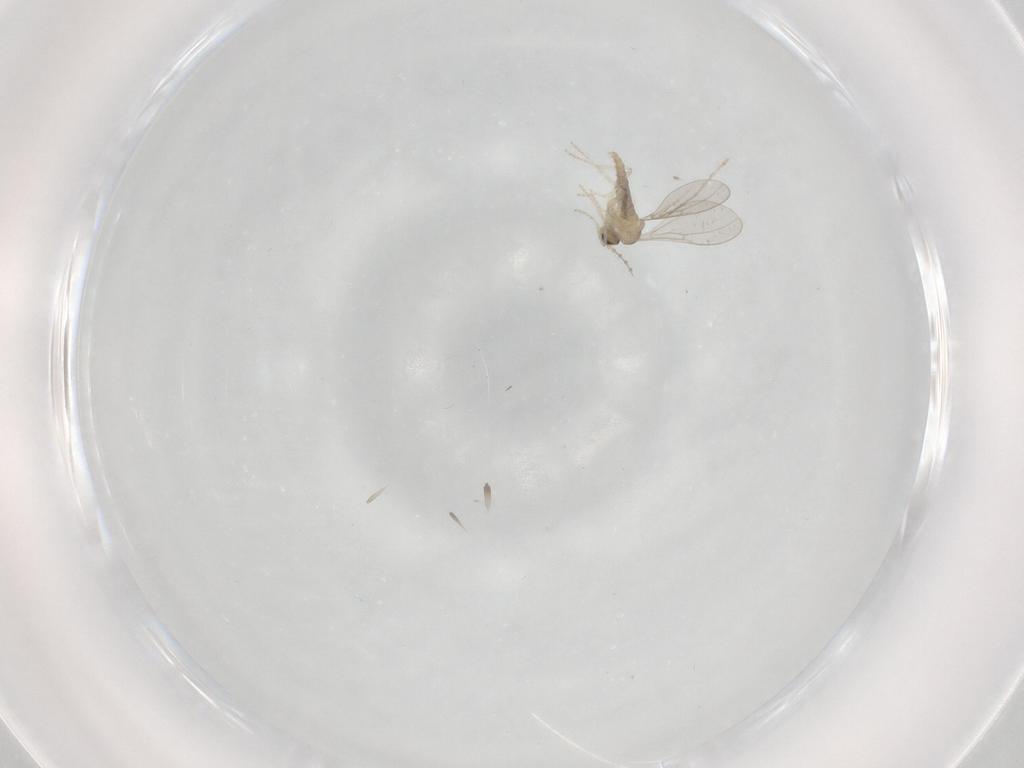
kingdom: Animalia
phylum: Arthropoda
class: Insecta
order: Diptera
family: Cecidomyiidae
